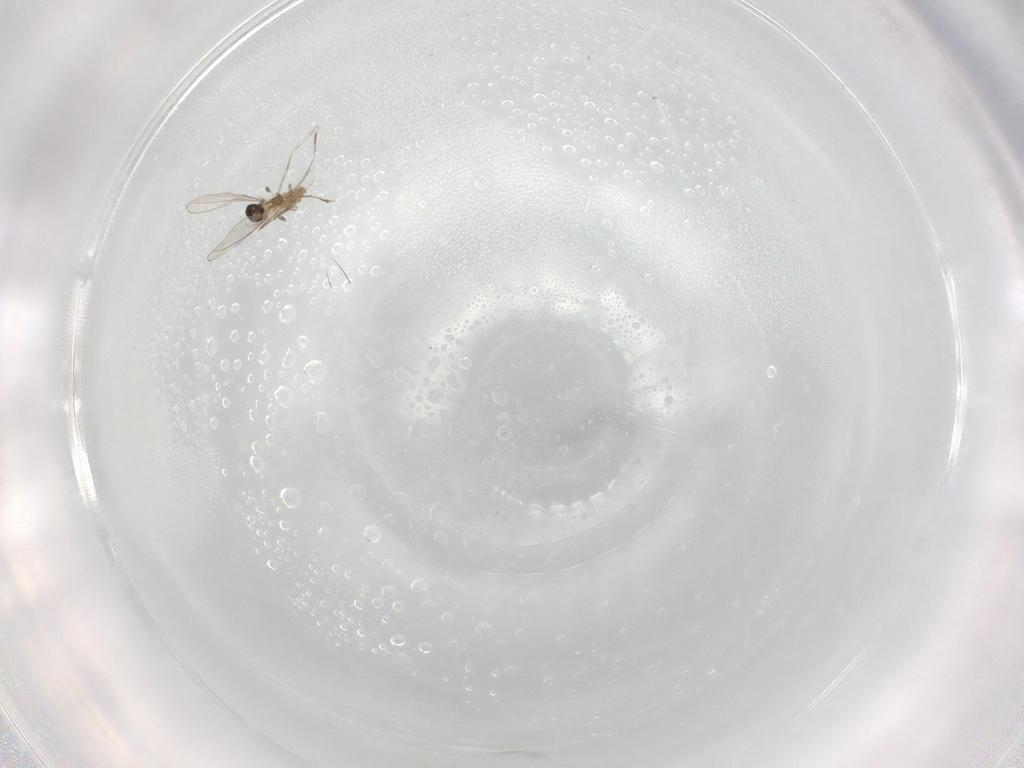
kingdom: Animalia
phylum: Arthropoda
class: Insecta
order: Diptera
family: Cecidomyiidae
